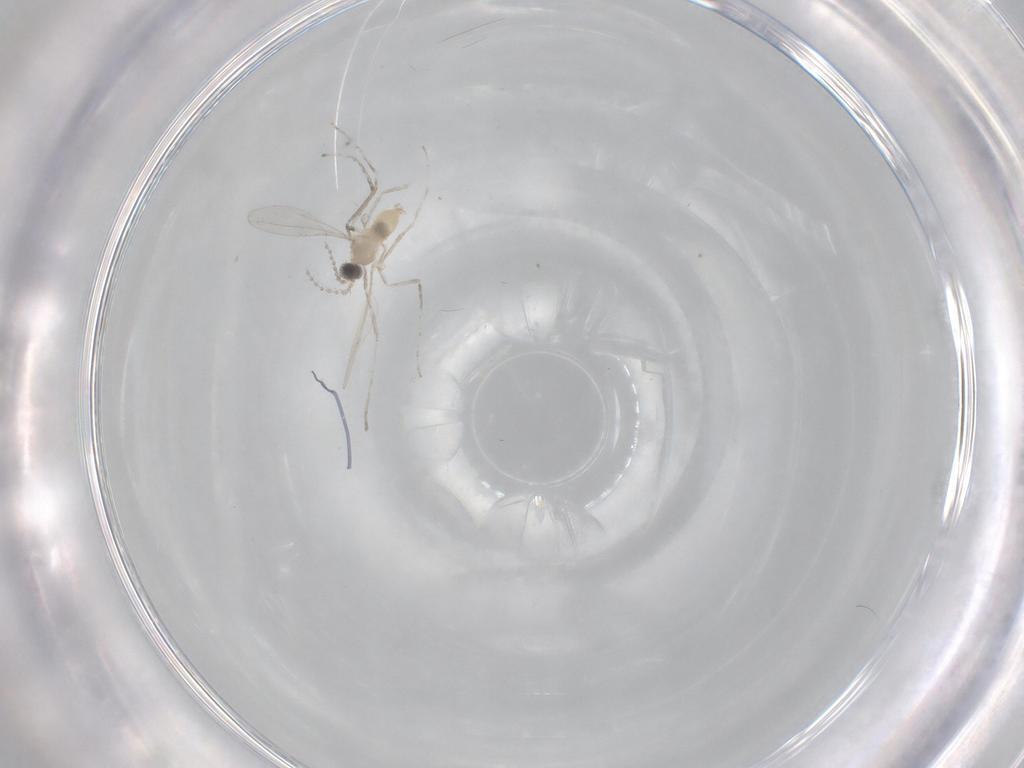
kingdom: Animalia
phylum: Arthropoda
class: Insecta
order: Diptera
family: Cecidomyiidae
